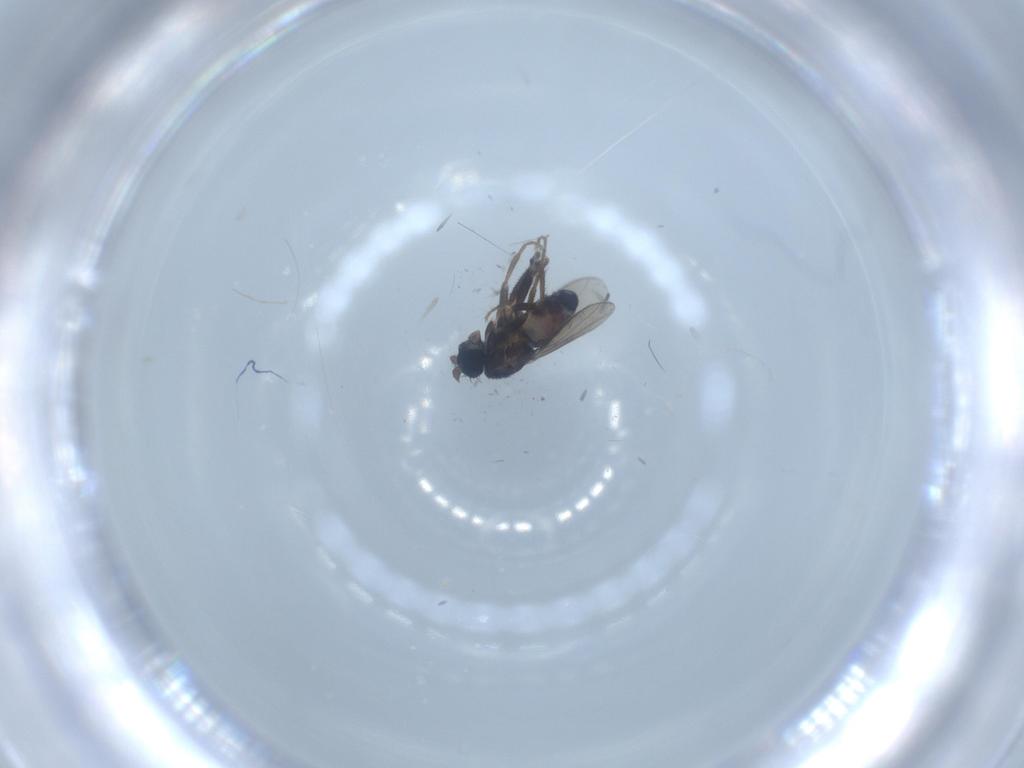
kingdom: Animalia
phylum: Arthropoda
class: Insecta
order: Diptera
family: Sphaeroceridae
